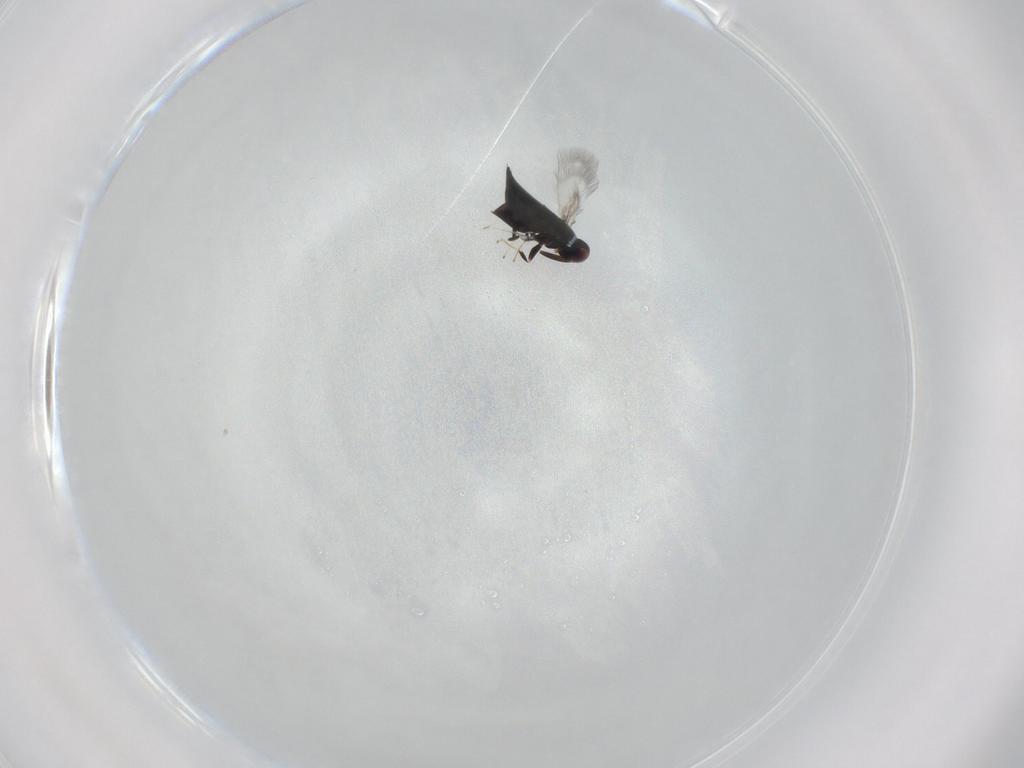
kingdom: Animalia
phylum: Arthropoda
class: Insecta
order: Hymenoptera
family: Signiphoridae
